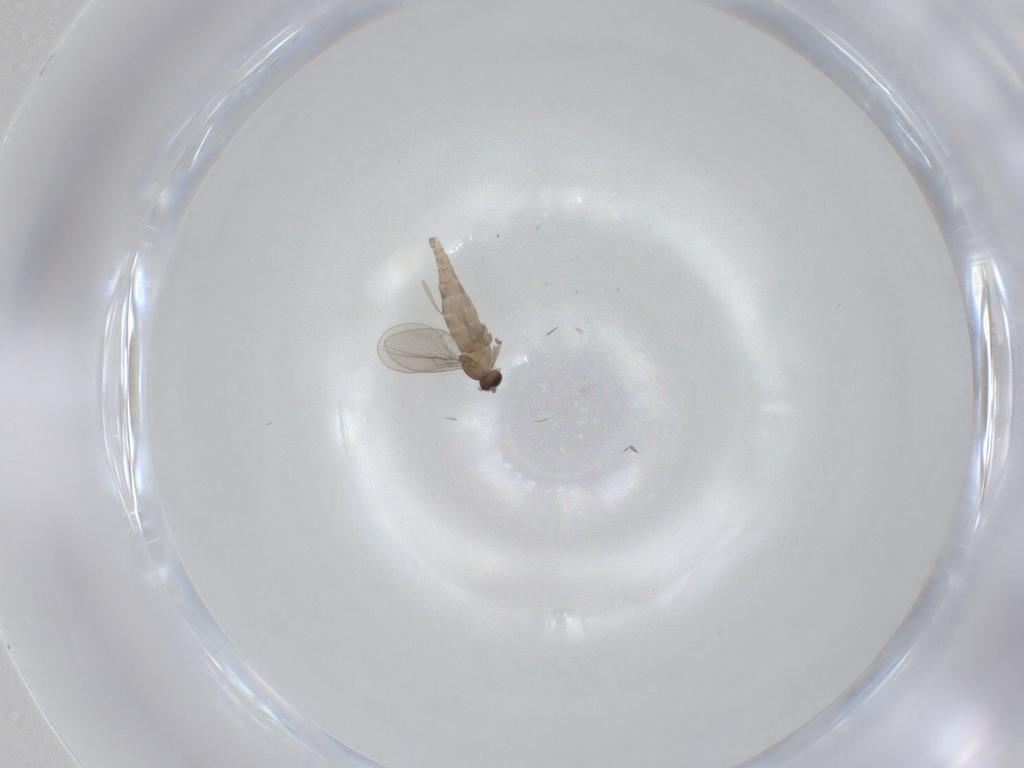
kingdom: Animalia
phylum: Arthropoda
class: Insecta
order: Diptera
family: Cecidomyiidae
